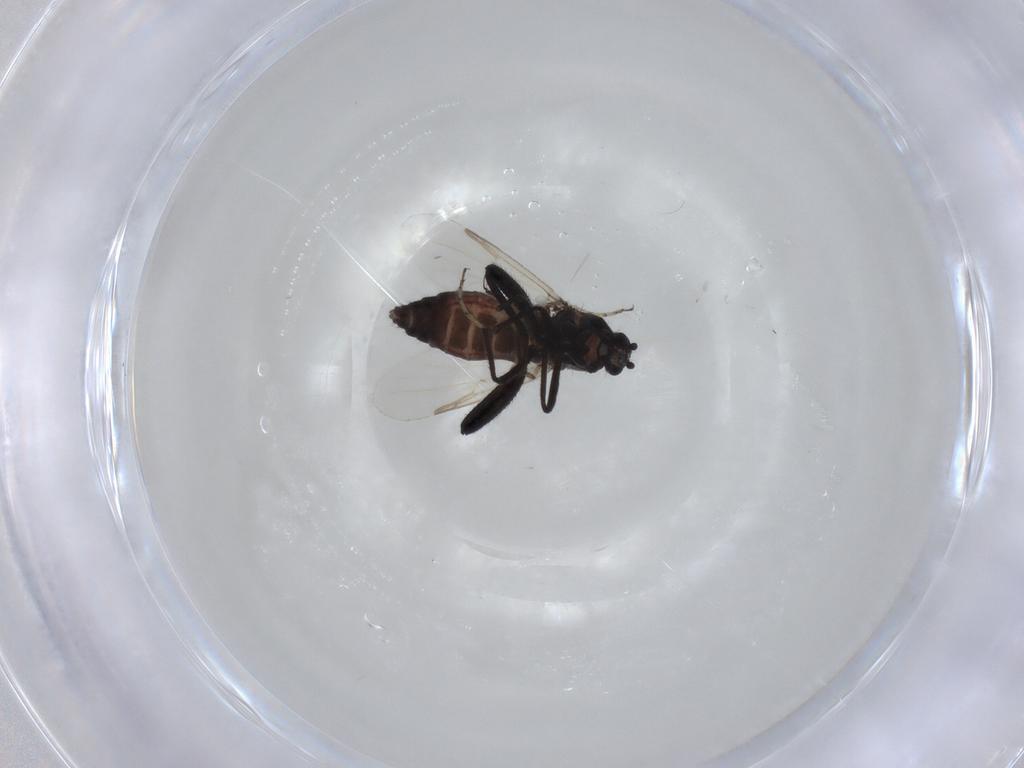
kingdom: Animalia
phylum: Arthropoda
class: Insecta
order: Diptera
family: Ceratopogonidae
